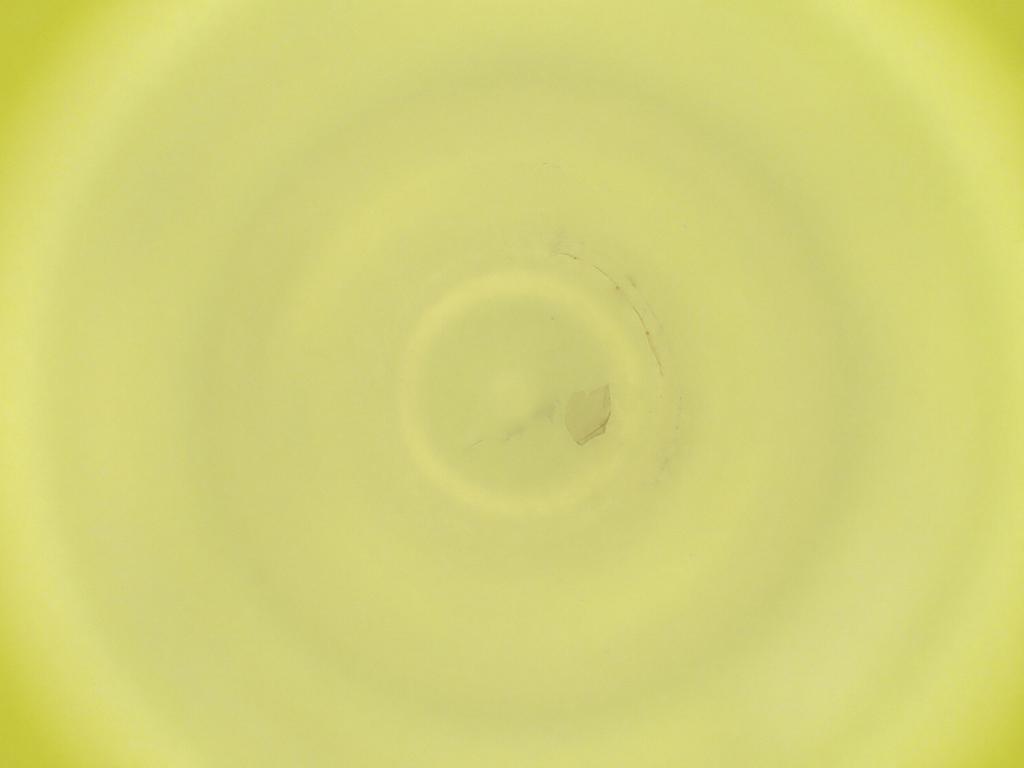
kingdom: Animalia
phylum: Arthropoda
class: Insecta
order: Diptera
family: Cecidomyiidae
